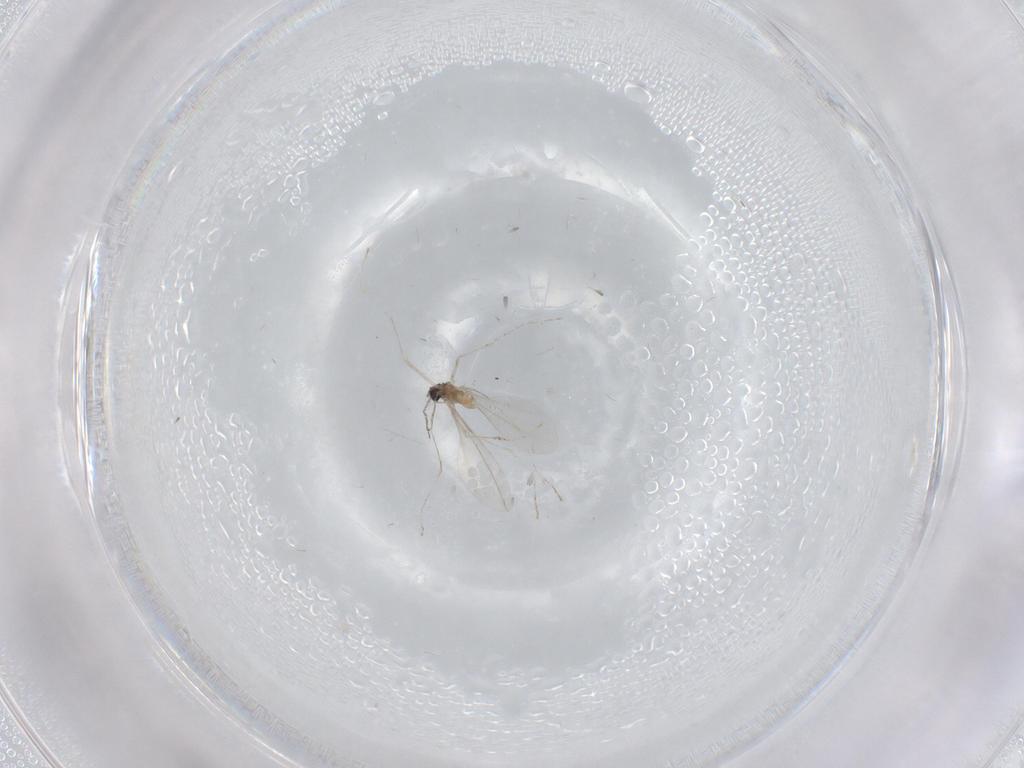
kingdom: Animalia
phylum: Arthropoda
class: Insecta
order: Diptera
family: Cecidomyiidae
